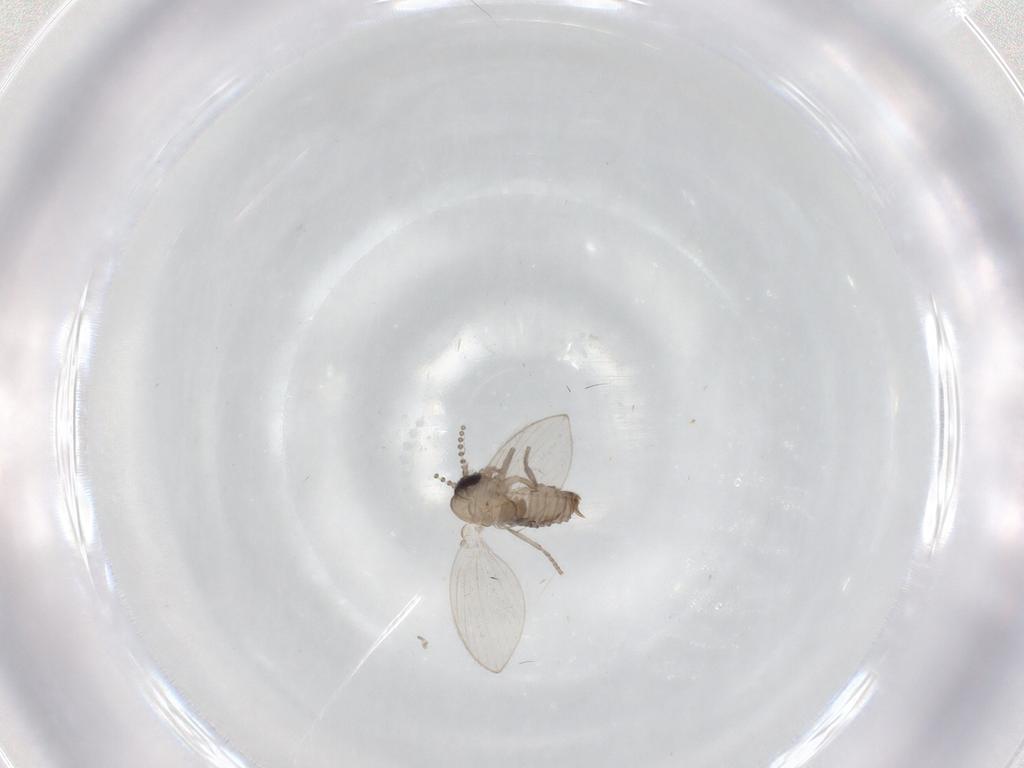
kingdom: Animalia
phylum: Arthropoda
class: Insecta
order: Diptera
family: Psychodidae
